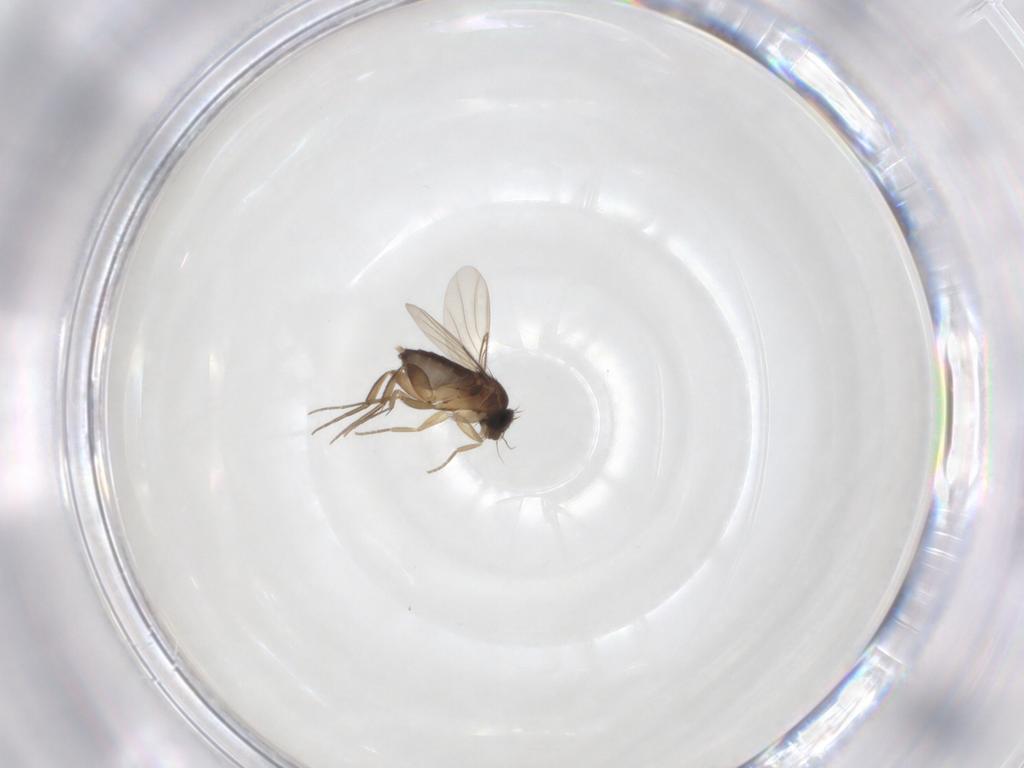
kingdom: Animalia
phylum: Arthropoda
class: Insecta
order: Diptera
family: Phoridae
